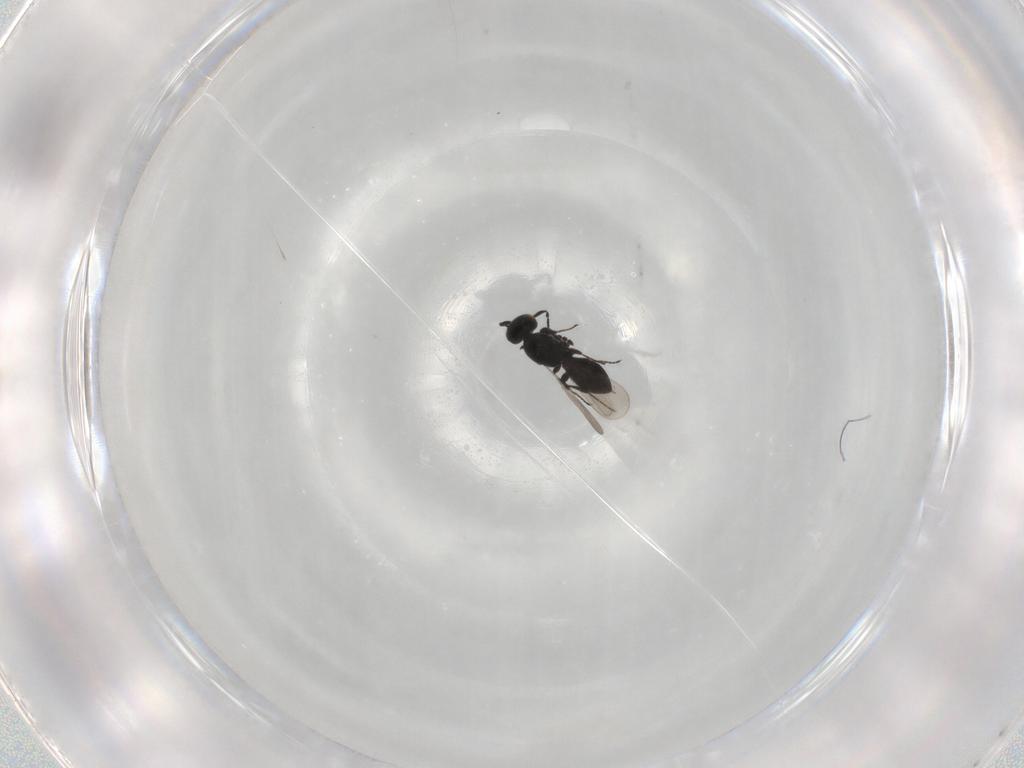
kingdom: Animalia
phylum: Arthropoda
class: Insecta
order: Hymenoptera
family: Platygastridae
